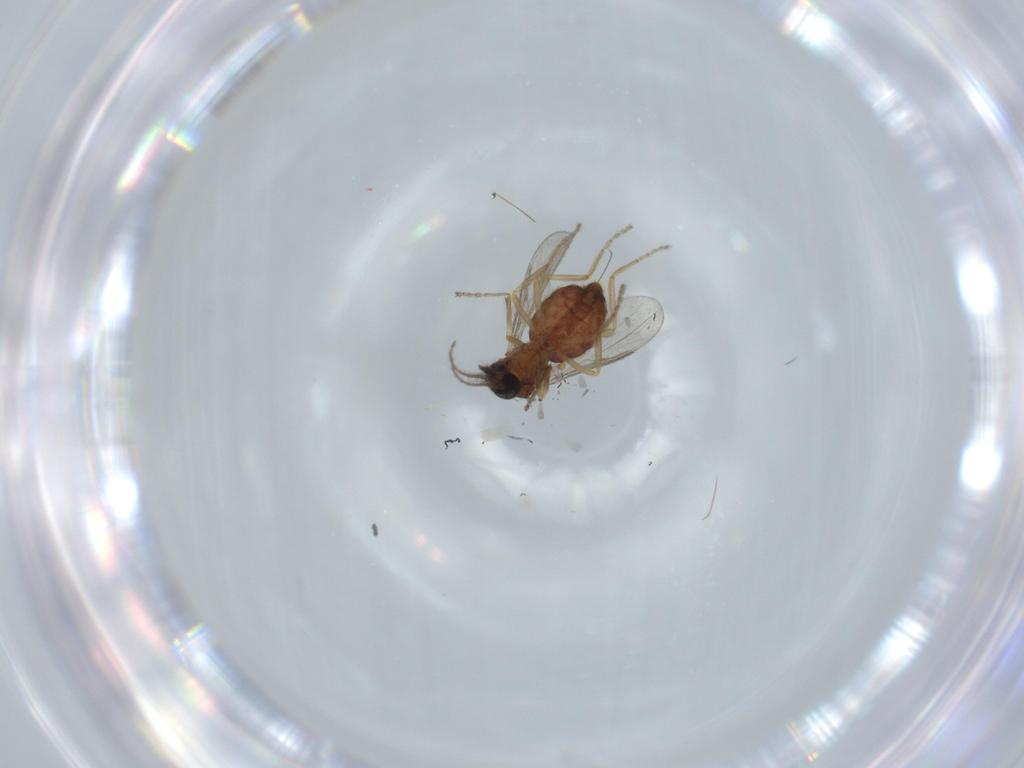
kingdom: Animalia
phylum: Arthropoda
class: Insecta
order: Diptera
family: Ceratopogonidae
